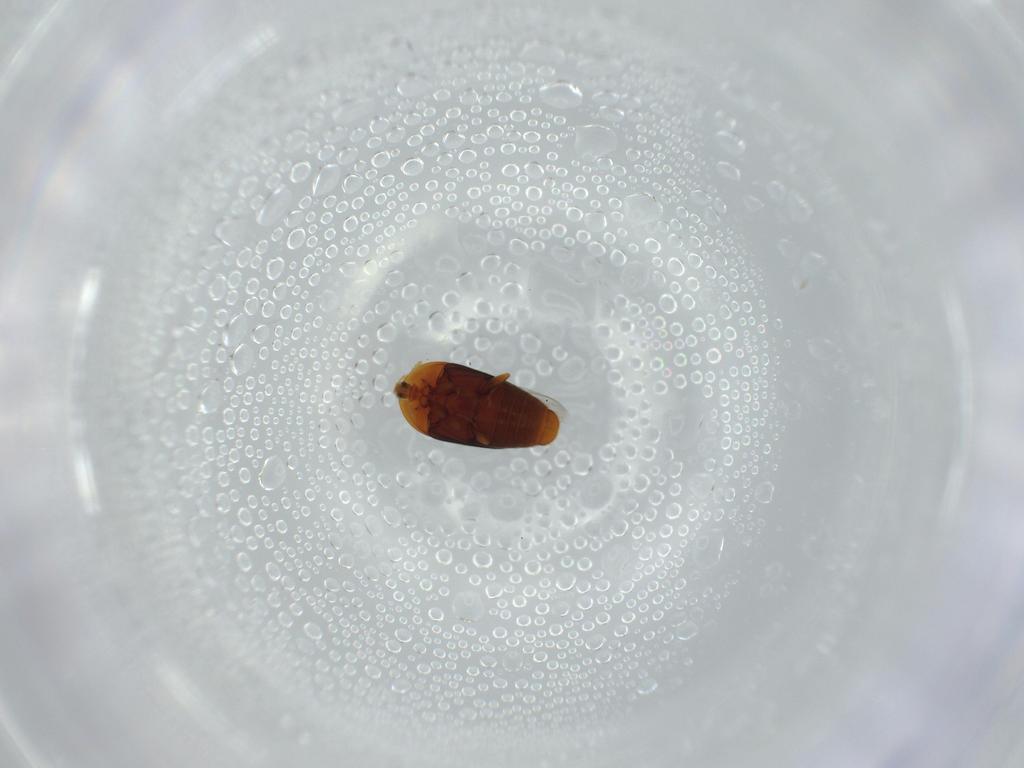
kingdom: Animalia
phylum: Arthropoda
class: Insecta
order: Coleoptera
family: Corylophidae
